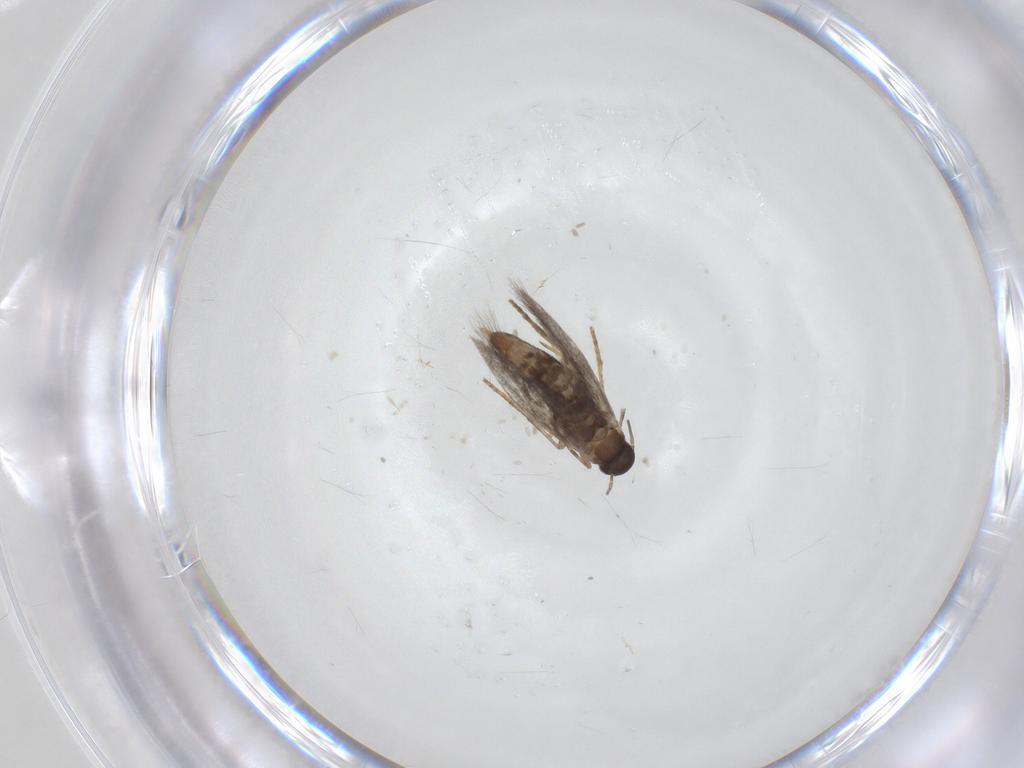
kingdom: Animalia
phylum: Arthropoda
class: Insecta
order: Lepidoptera
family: Heliozelidae
